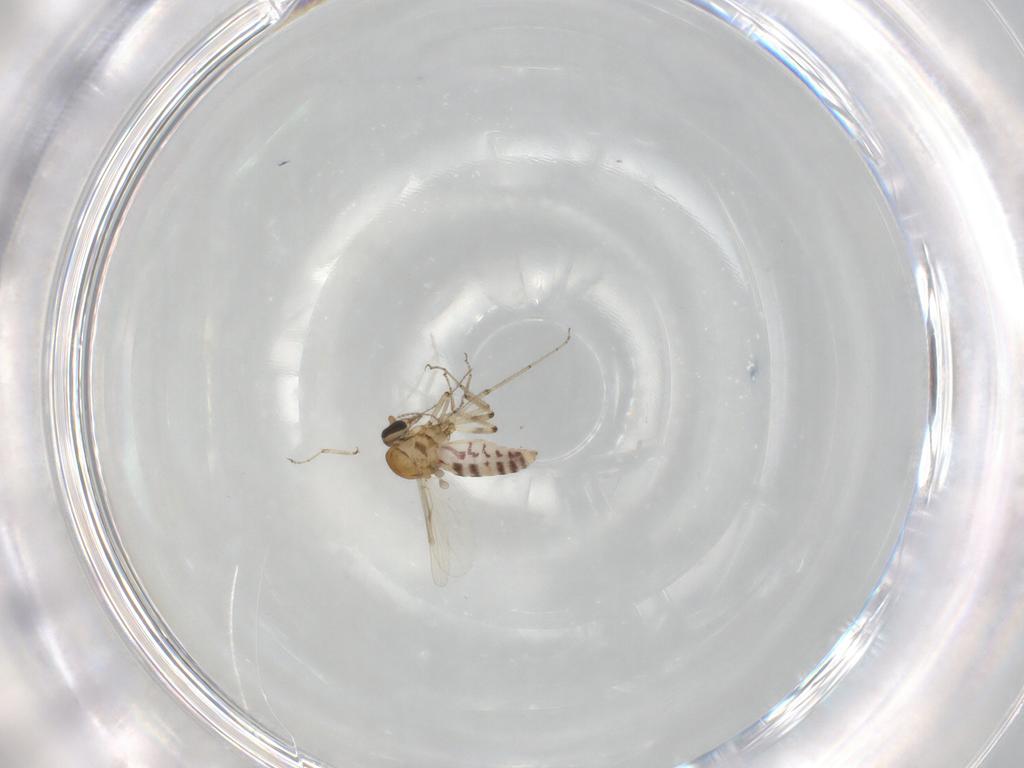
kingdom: Animalia
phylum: Arthropoda
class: Insecta
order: Diptera
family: Ceratopogonidae
